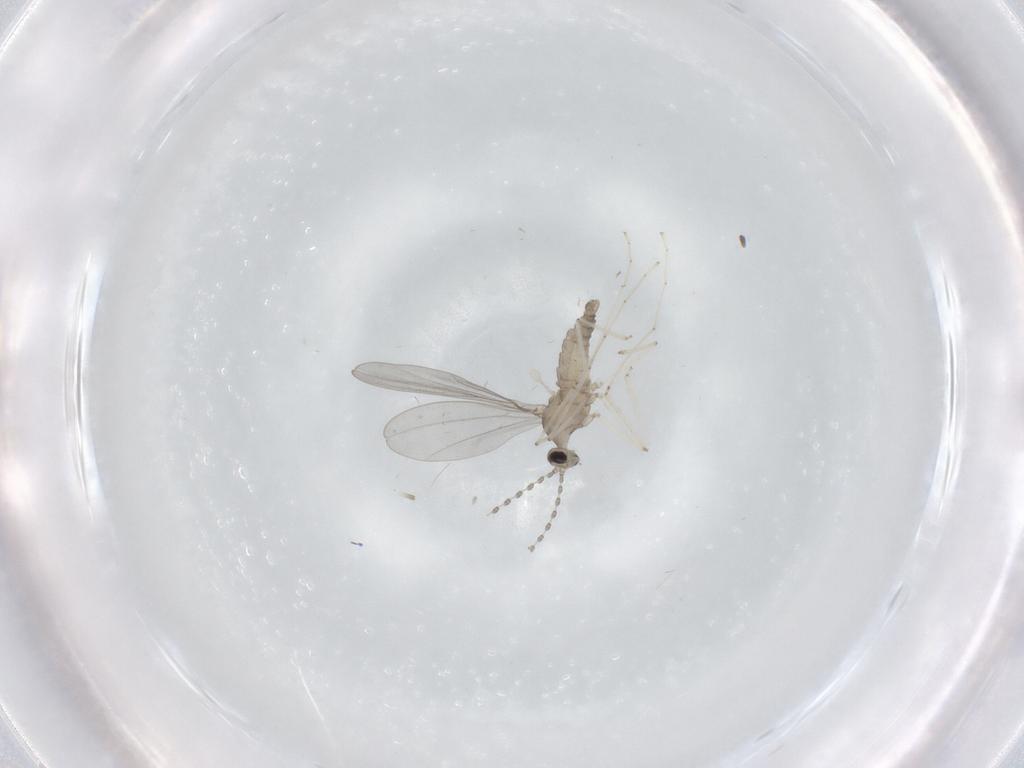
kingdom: Animalia
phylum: Arthropoda
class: Insecta
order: Diptera
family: Cecidomyiidae
